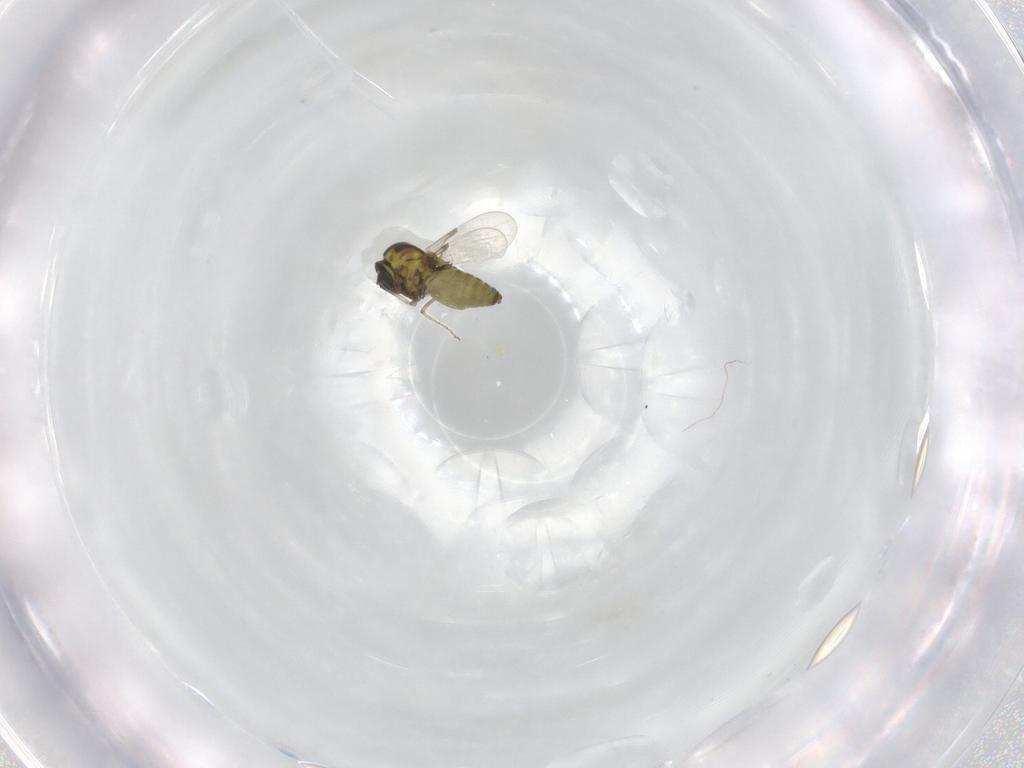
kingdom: Animalia
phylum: Arthropoda
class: Insecta
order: Diptera
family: Ceratopogonidae
